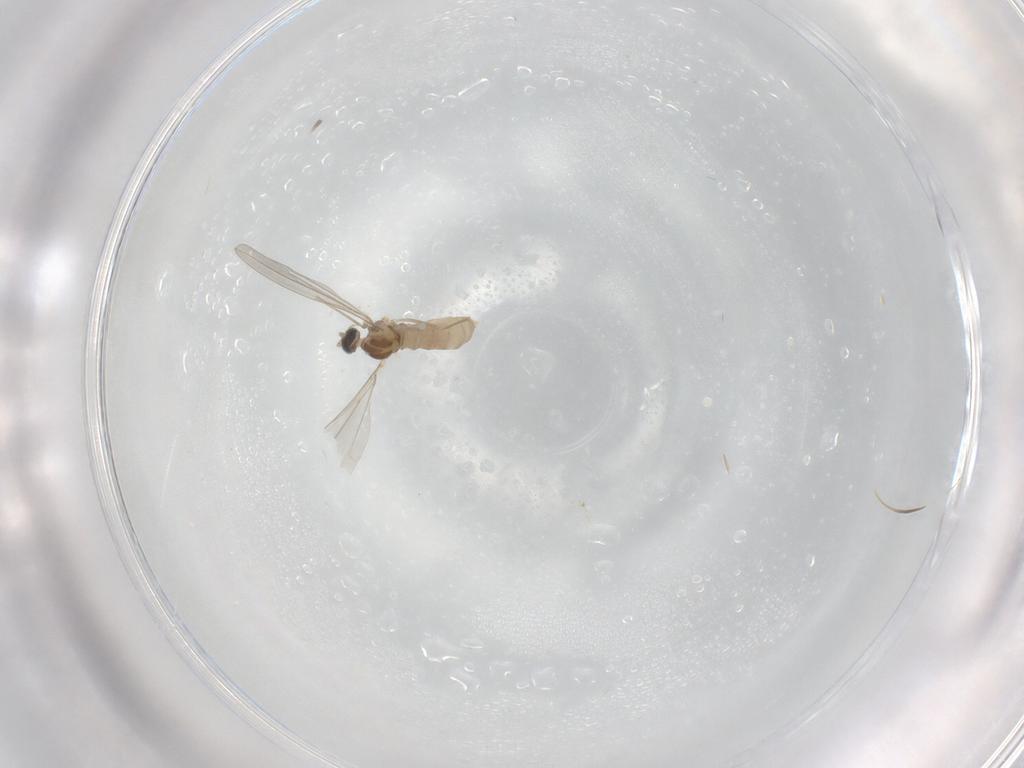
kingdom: Animalia
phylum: Arthropoda
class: Insecta
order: Diptera
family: Cecidomyiidae
